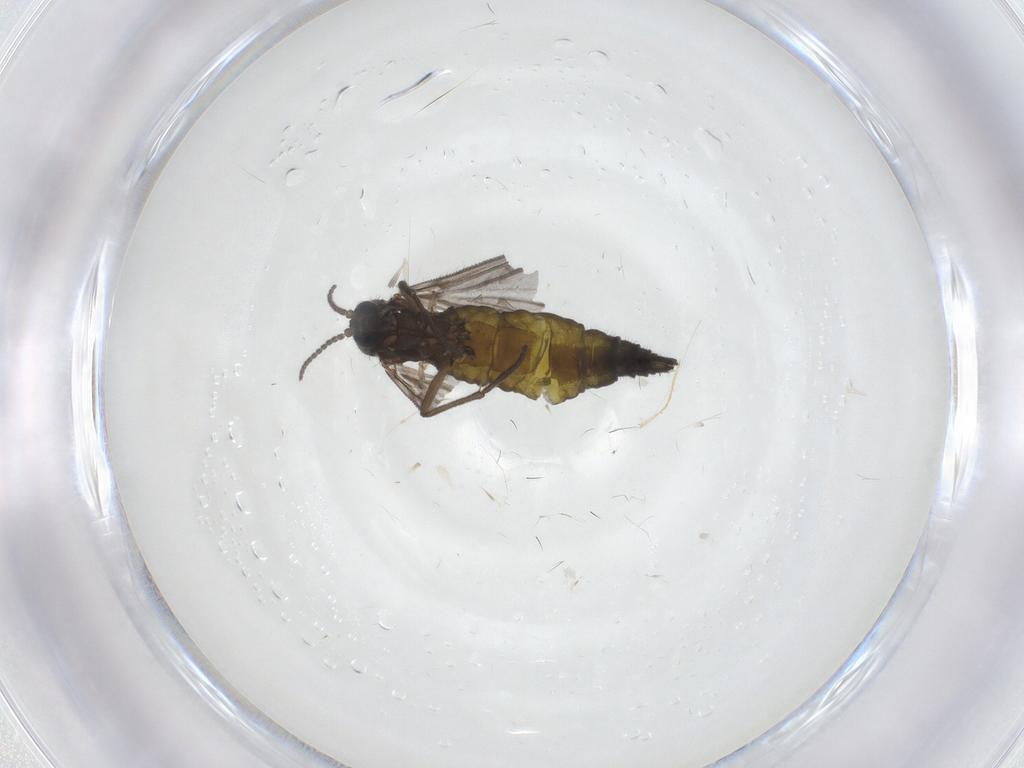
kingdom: Animalia
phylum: Arthropoda
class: Insecta
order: Diptera
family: Sciaridae
